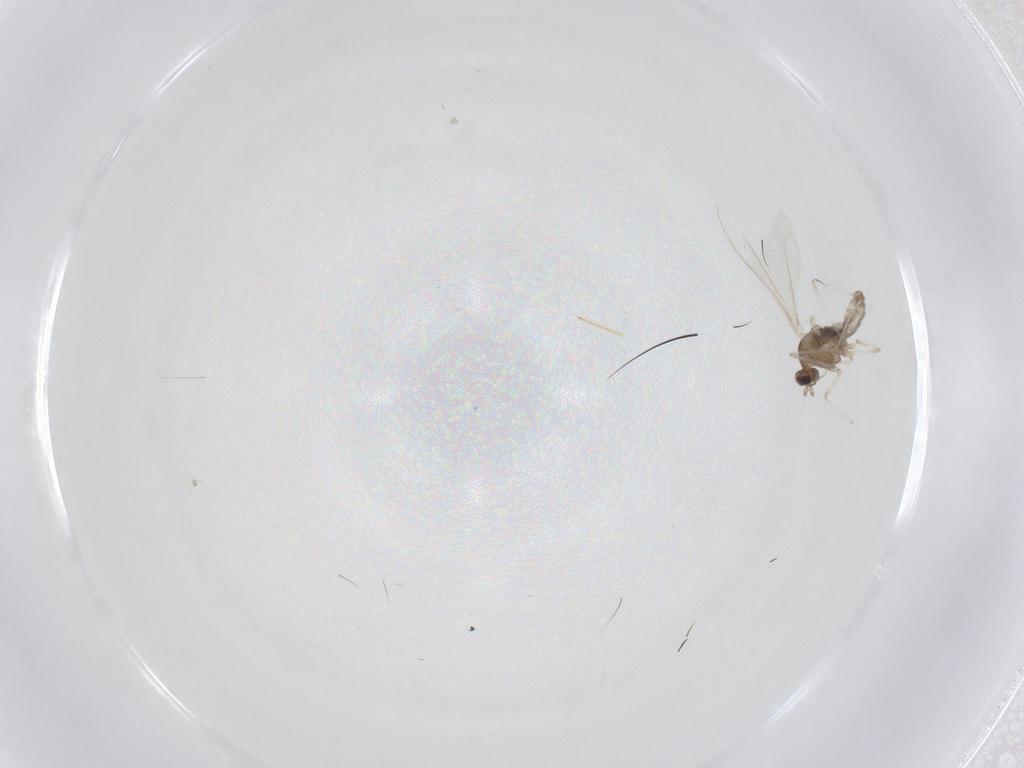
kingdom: Animalia
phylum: Arthropoda
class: Insecta
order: Diptera
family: Cecidomyiidae
